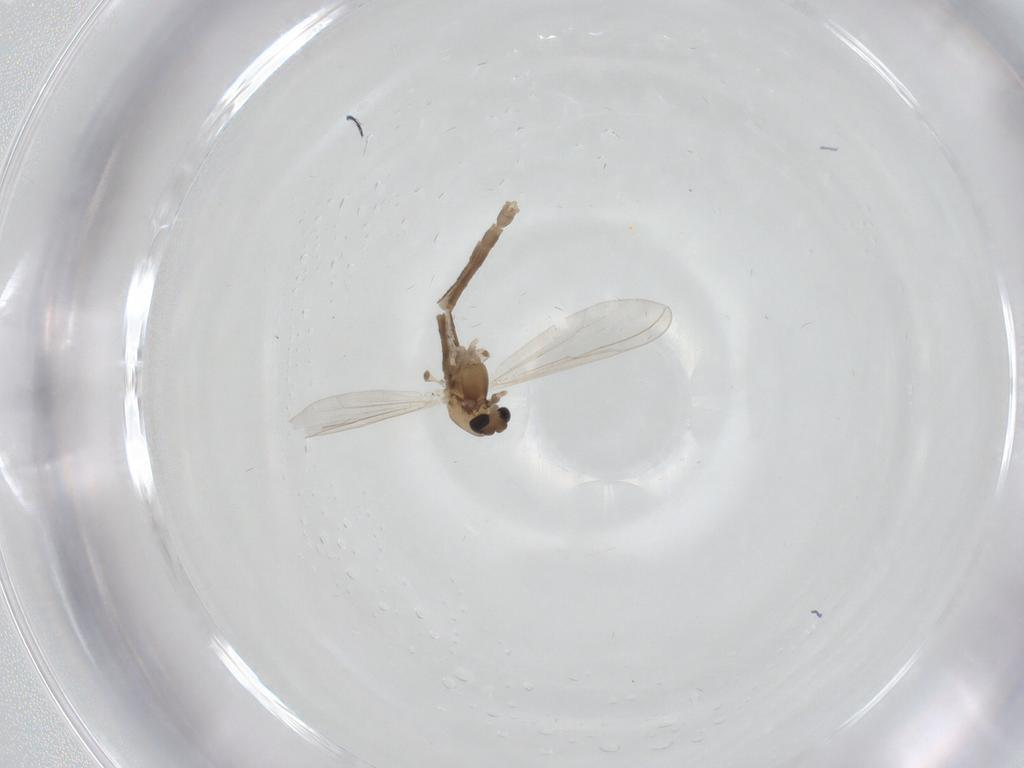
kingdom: Animalia
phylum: Arthropoda
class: Insecta
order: Diptera
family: Chironomidae
